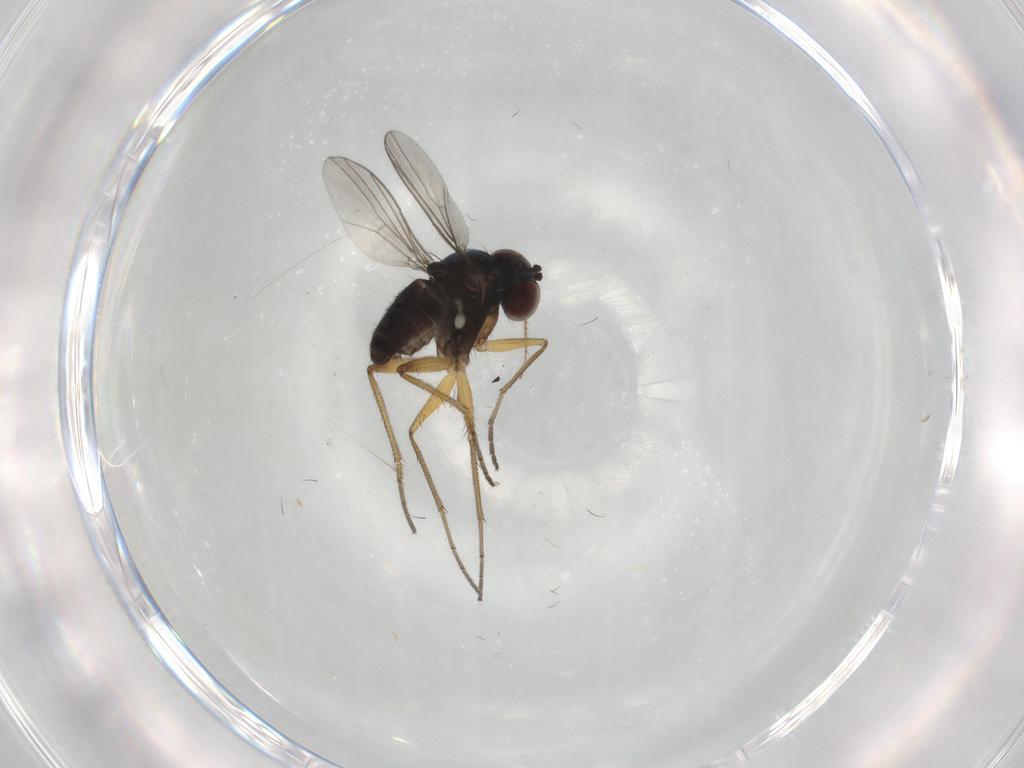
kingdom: Animalia
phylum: Arthropoda
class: Insecta
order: Diptera
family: Dolichopodidae
